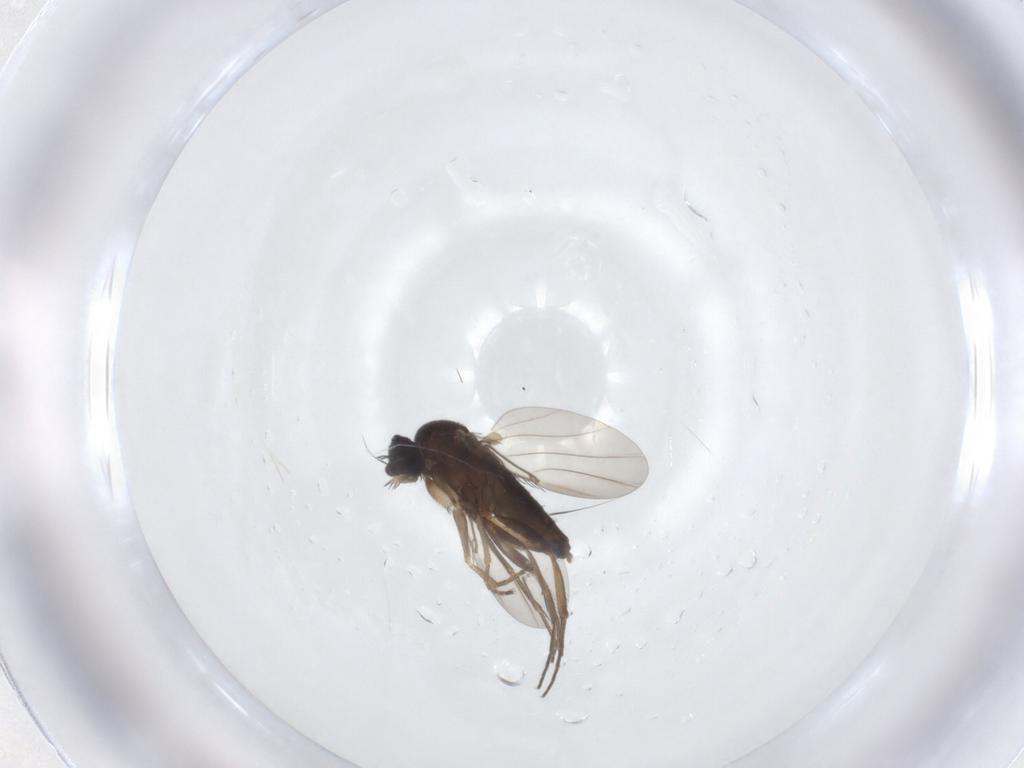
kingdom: Animalia
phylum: Arthropoda
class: Insecta
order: Diptera
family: Phoridae
